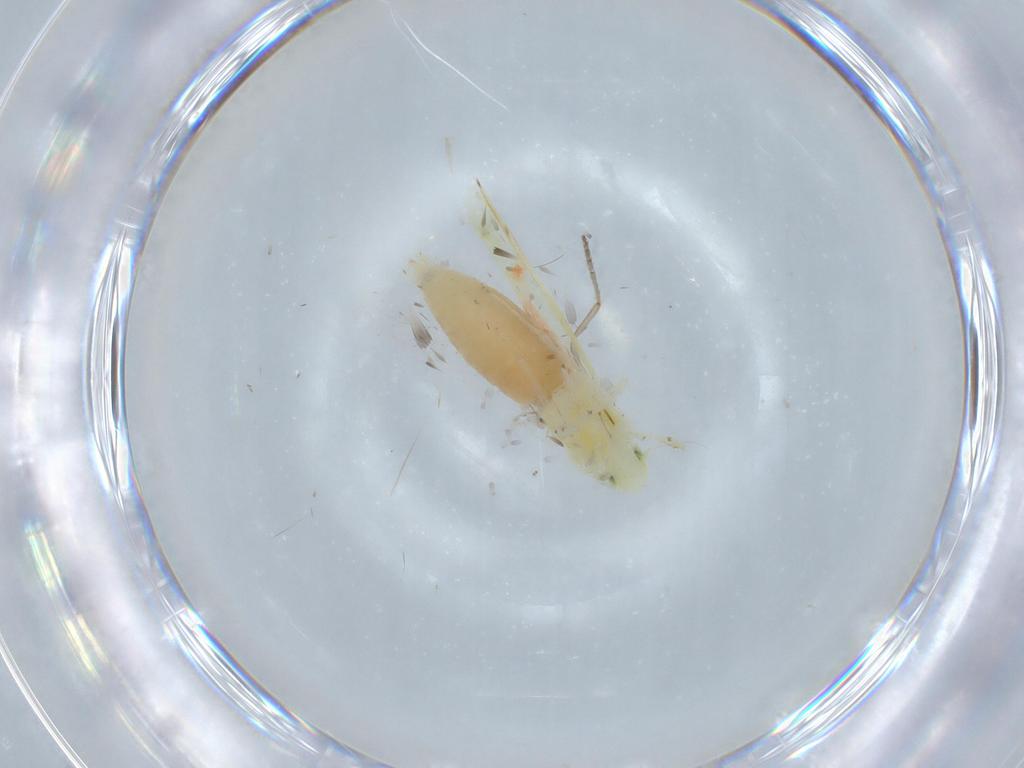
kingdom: Animalia
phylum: Arthropoda
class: Insecta
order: Hemiptera
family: Cicadellidae
